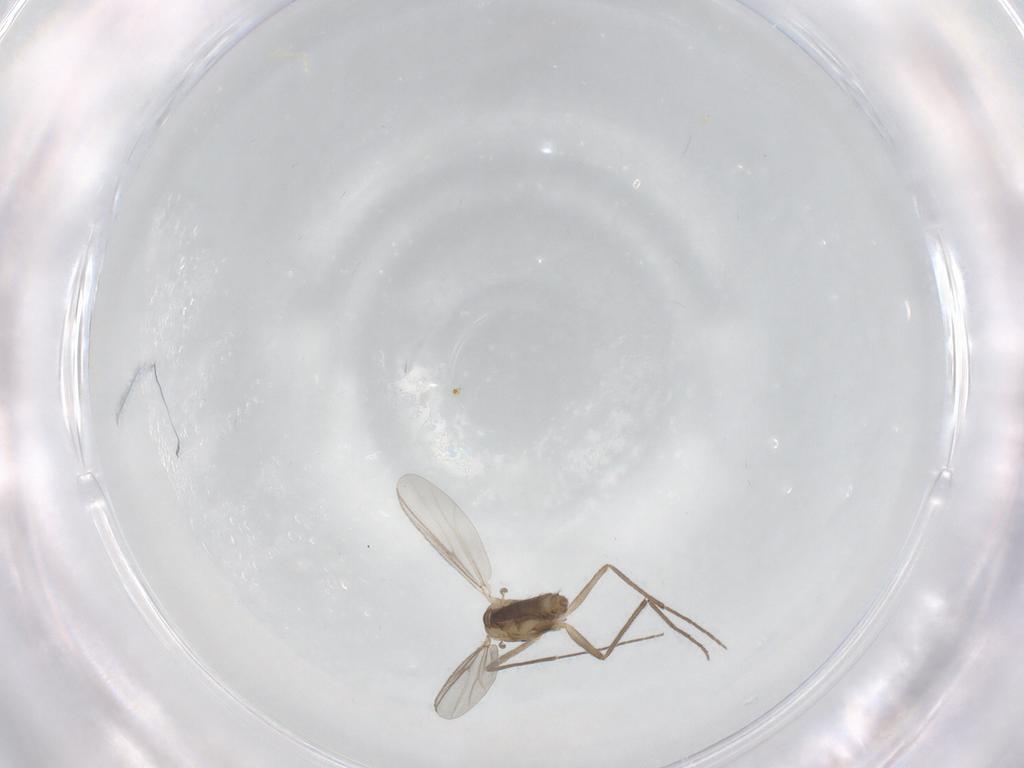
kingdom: Animalia
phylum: Arthropoda
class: Insecta
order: Diptera
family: Chironomidae
